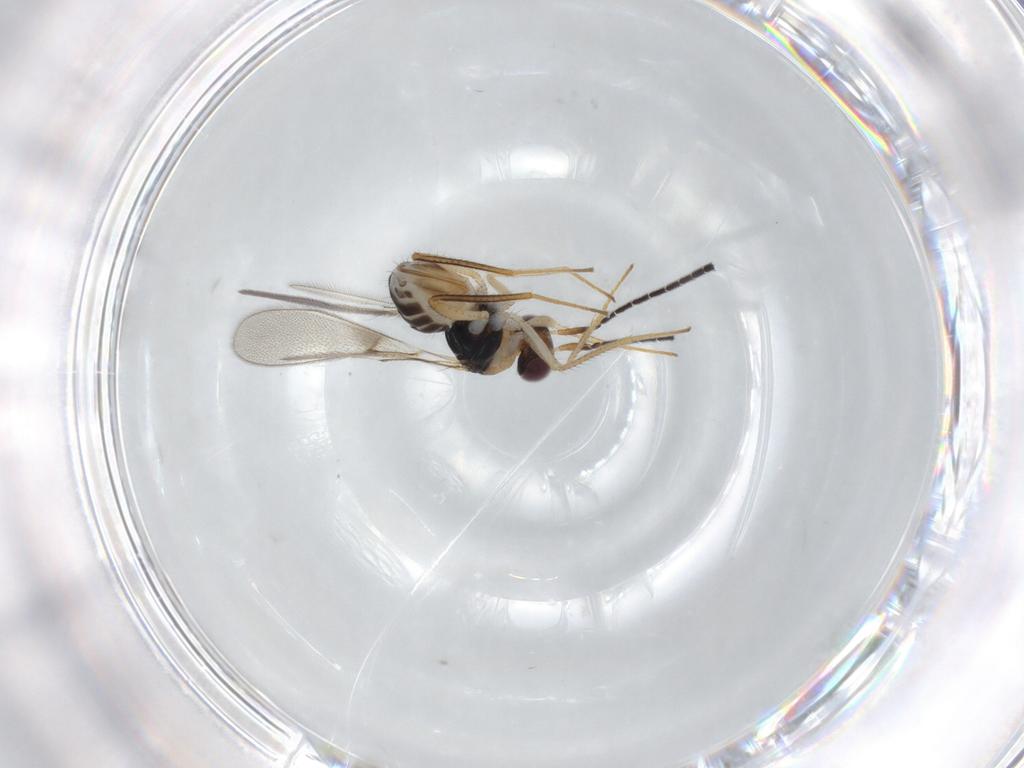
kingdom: Animalia
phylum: Arthropoda
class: Insecta
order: Hymenoptera
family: Mymaridae
